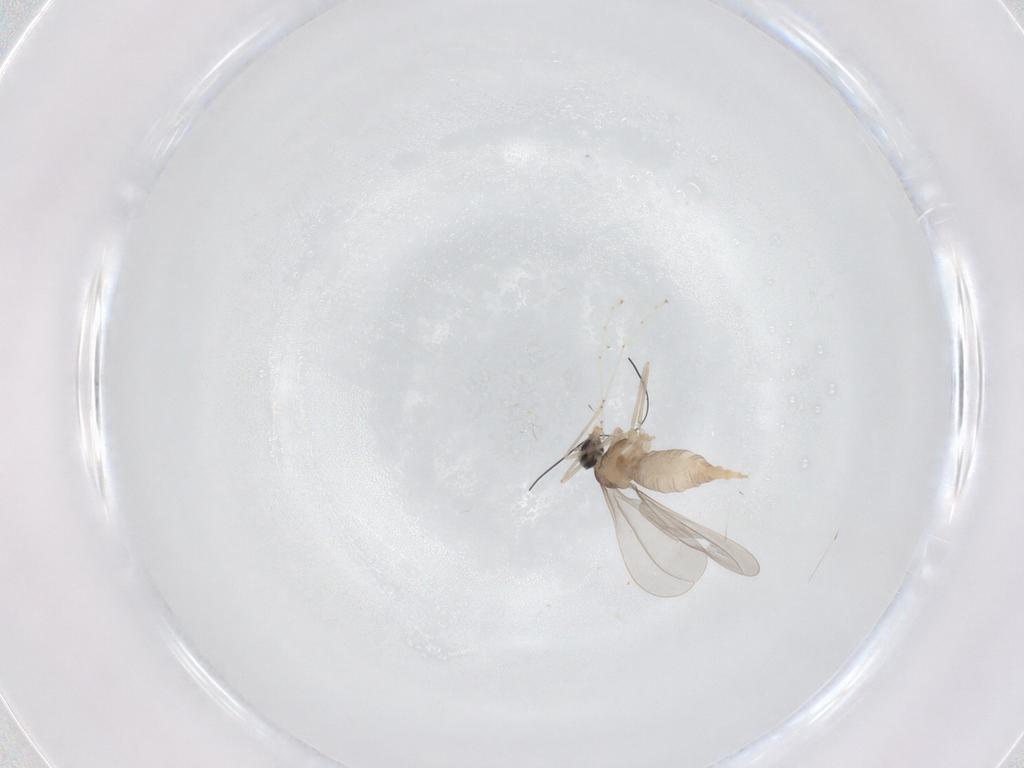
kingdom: Animalia
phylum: Arthropoda
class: Insecta
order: Diptera
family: Cecidomyiidae
